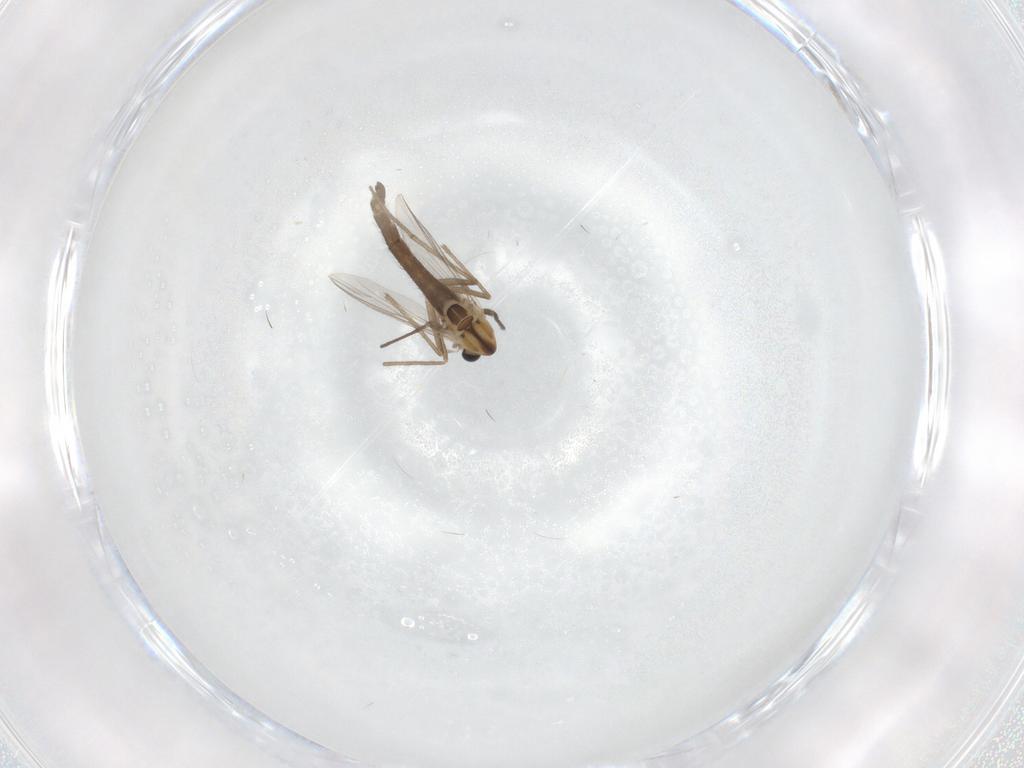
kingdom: Animalia
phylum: Arthropoda
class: Insecta
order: Diptera
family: Chironomidae
